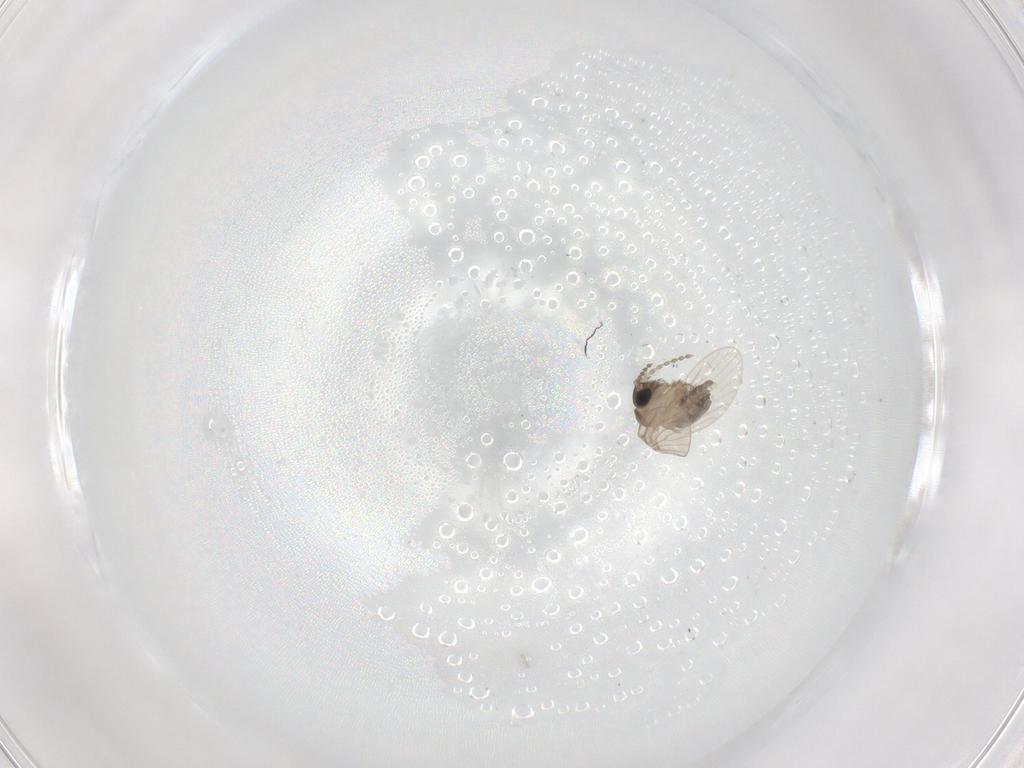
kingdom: Animalia
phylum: Arthropoda
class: Insecta
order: Diptera
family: Cecidomyiidae
